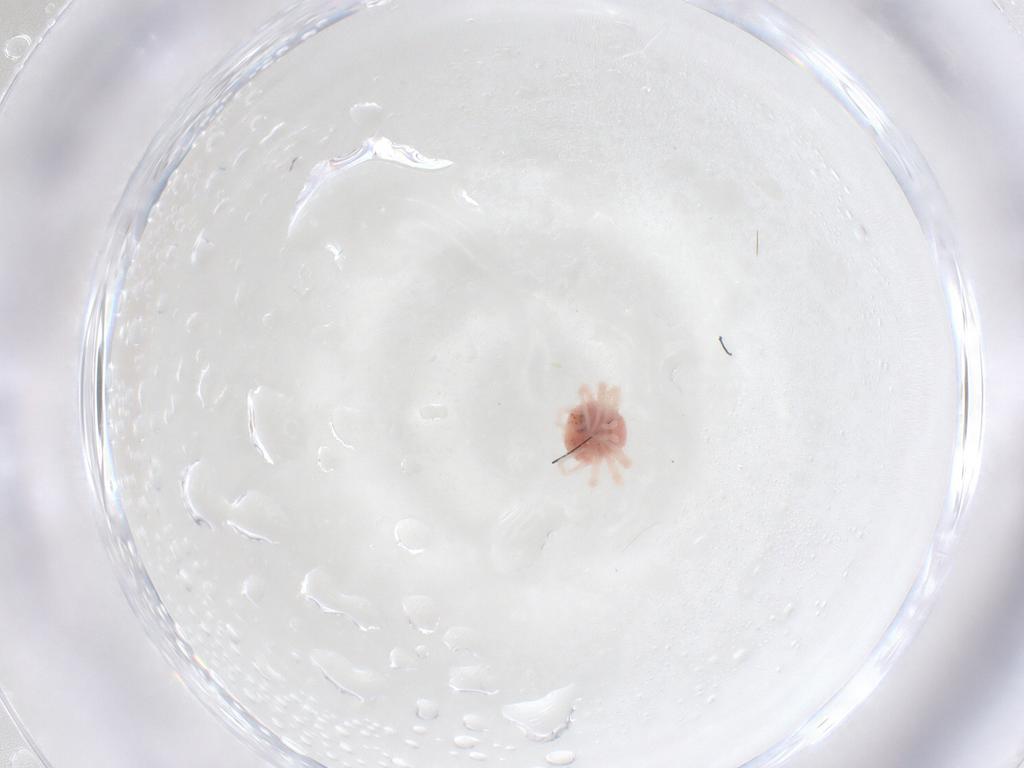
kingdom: Animalia
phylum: Arthropoda
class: Arachnida
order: Trombidiformes
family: Anystidae
